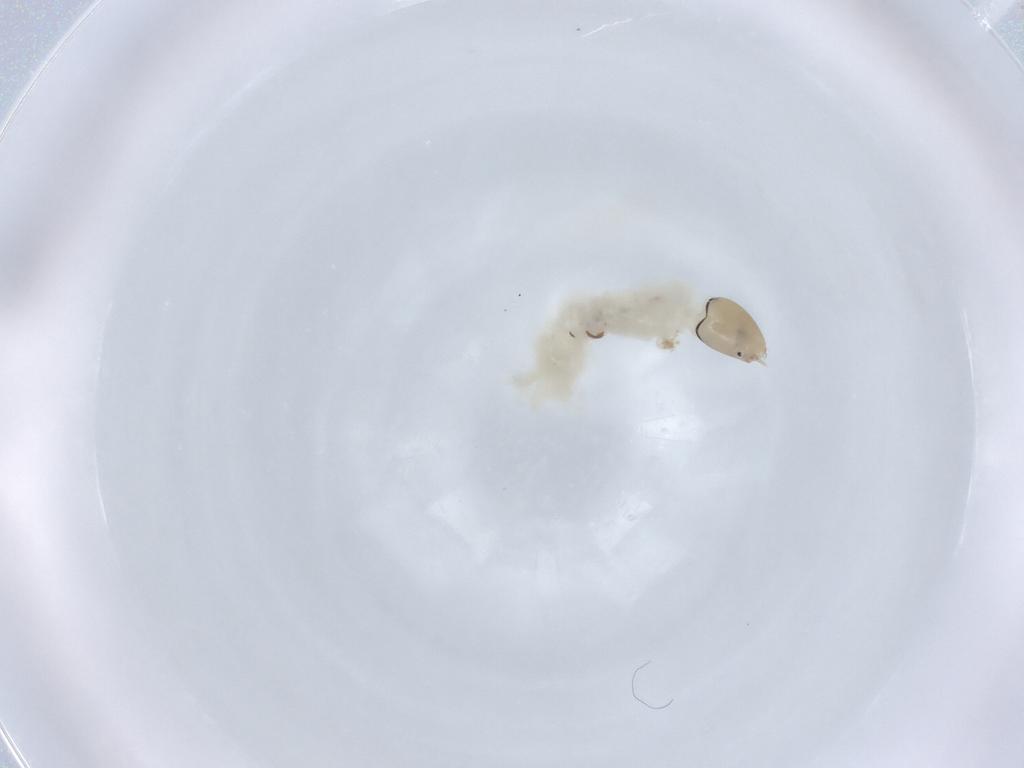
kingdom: Animalia
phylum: Arthropoda
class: Insecta
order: Diptera
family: Chironomidae
